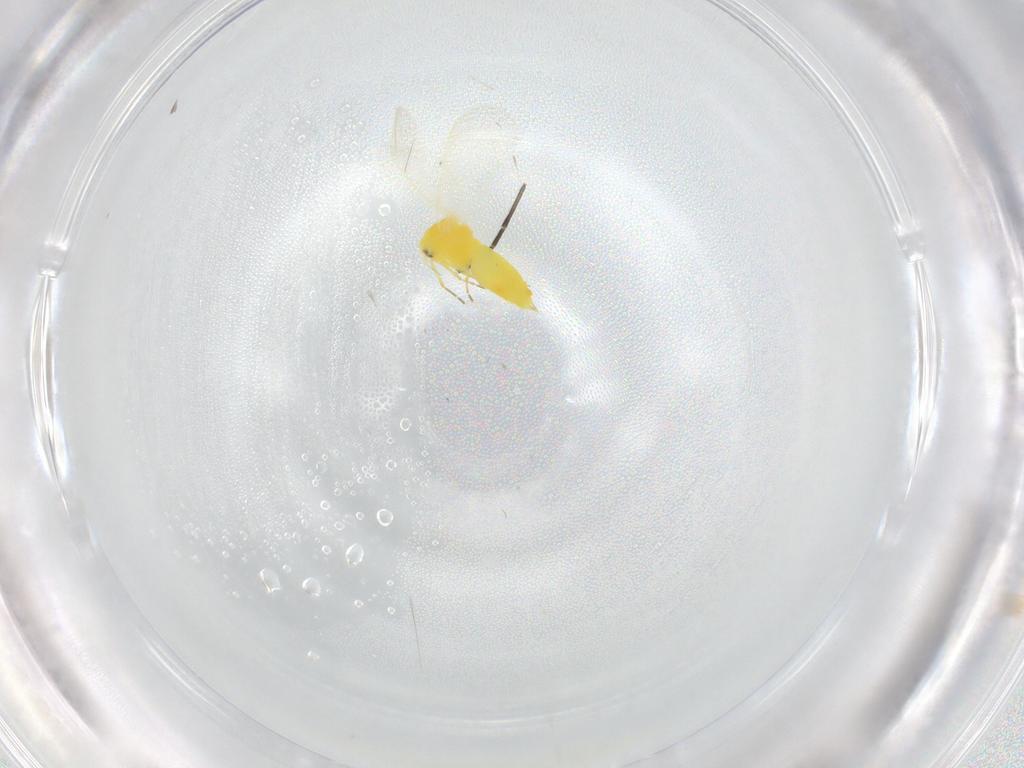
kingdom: Animalia
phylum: Arthropoda
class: Insecta
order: Hemiptera
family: Aleyrodidae
